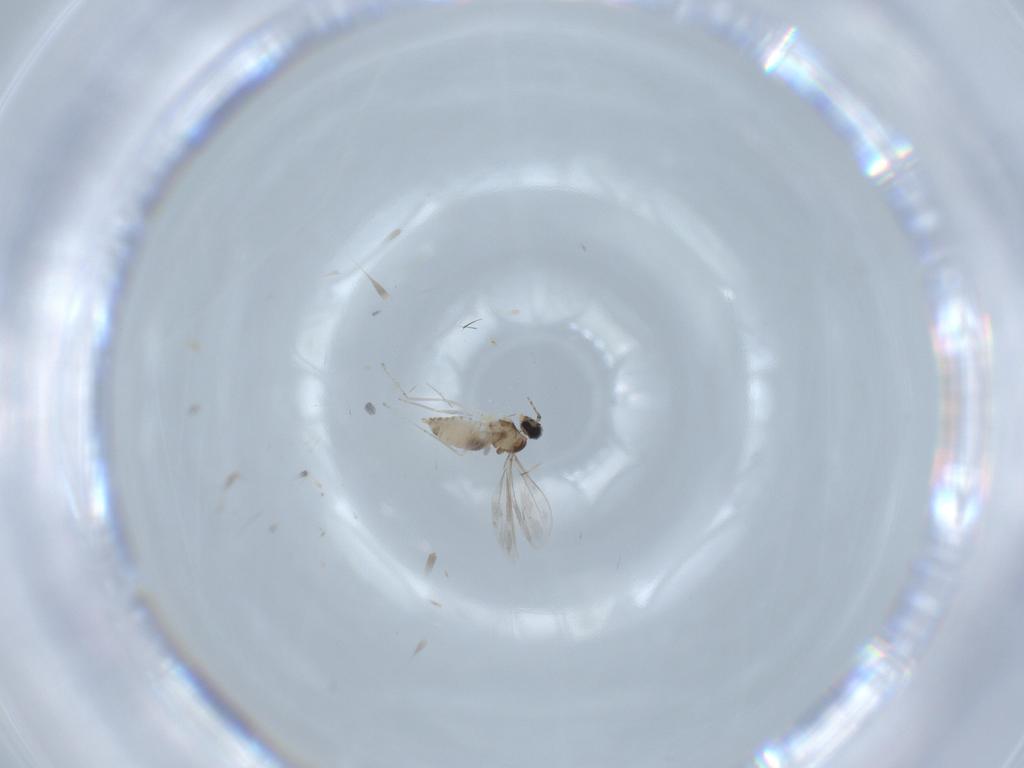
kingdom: Animalia
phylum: Arthropoda
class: Insecta
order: Diptera
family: Cecidomyiidae
